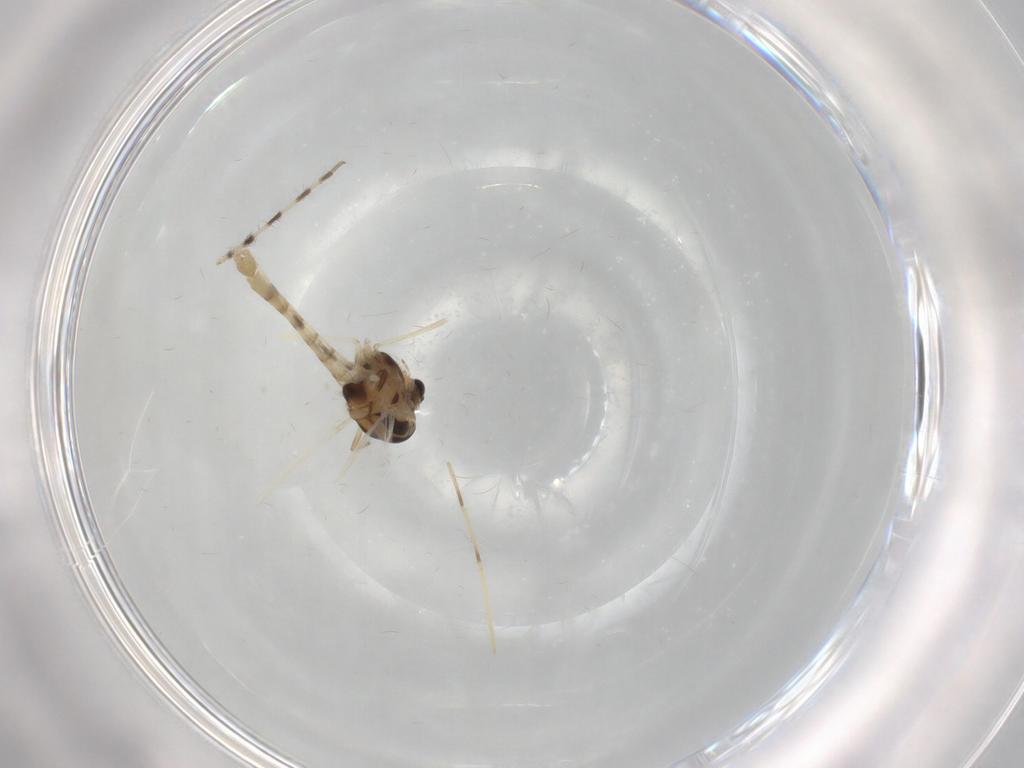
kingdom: Animalia
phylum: Arthropoda
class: Insecta
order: Diptera
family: Chironomidae
